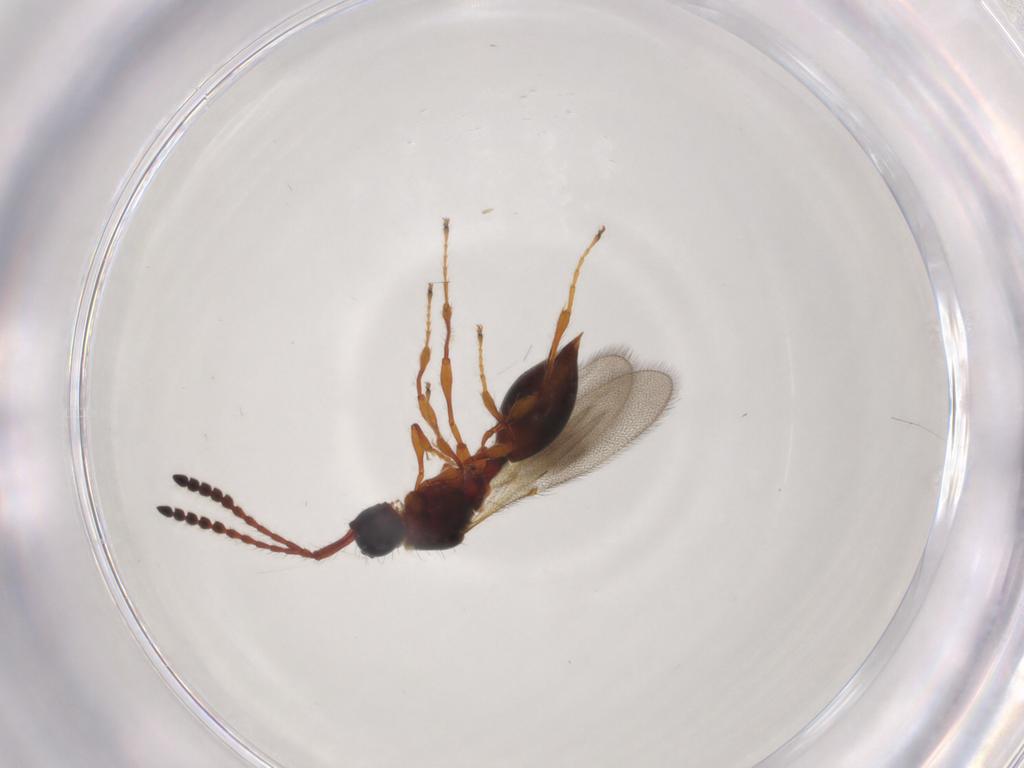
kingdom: Animalia
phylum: Arthropoda
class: Insecta
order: Hymenoptera
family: Diapriidae
